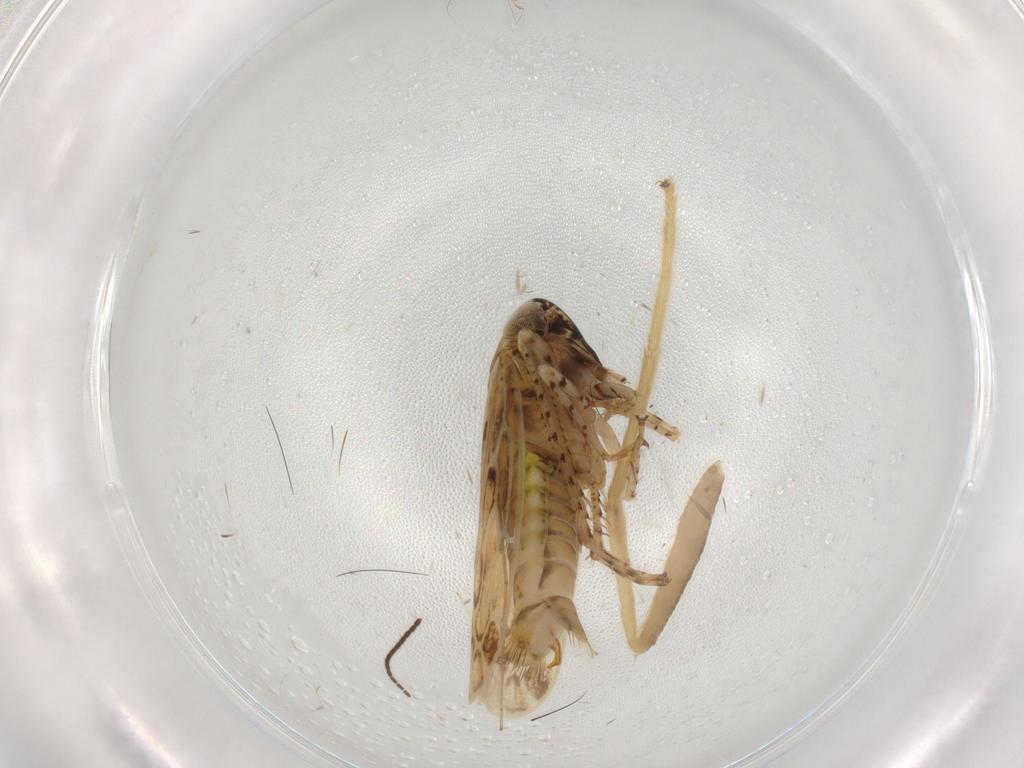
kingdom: Animalia
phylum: Arthropoda
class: Insecta
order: Hemiptera
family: Cicadellidae
